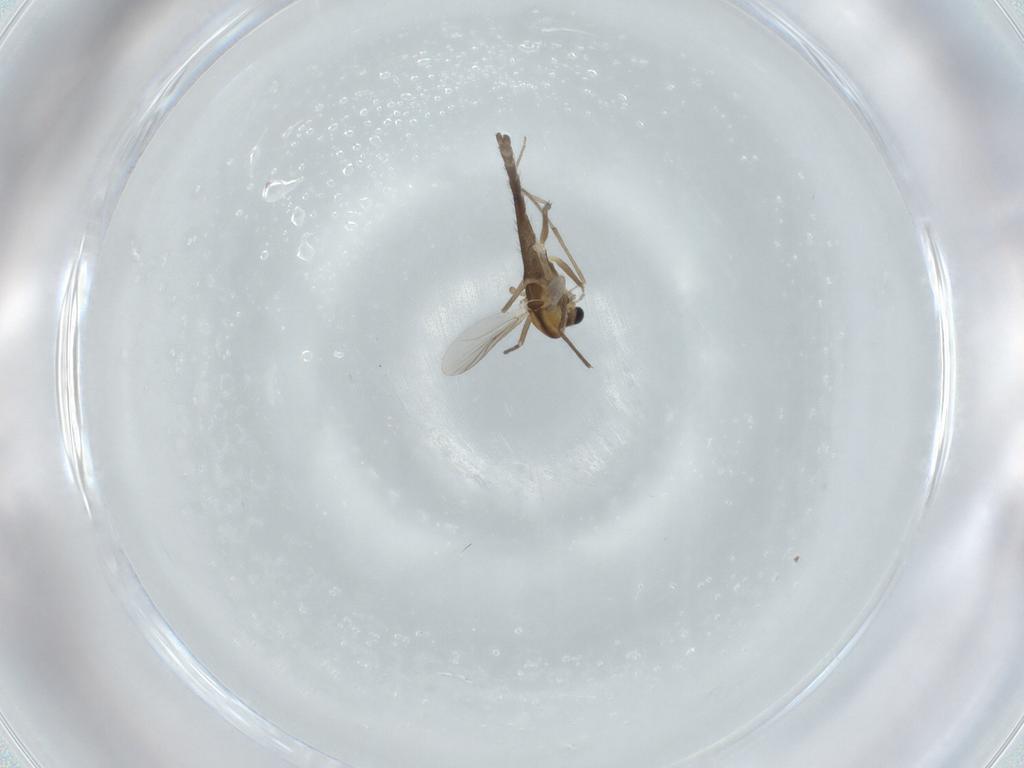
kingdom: Animalia
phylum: Arthropoda
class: Insecta
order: Diptera
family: Chironomidae
